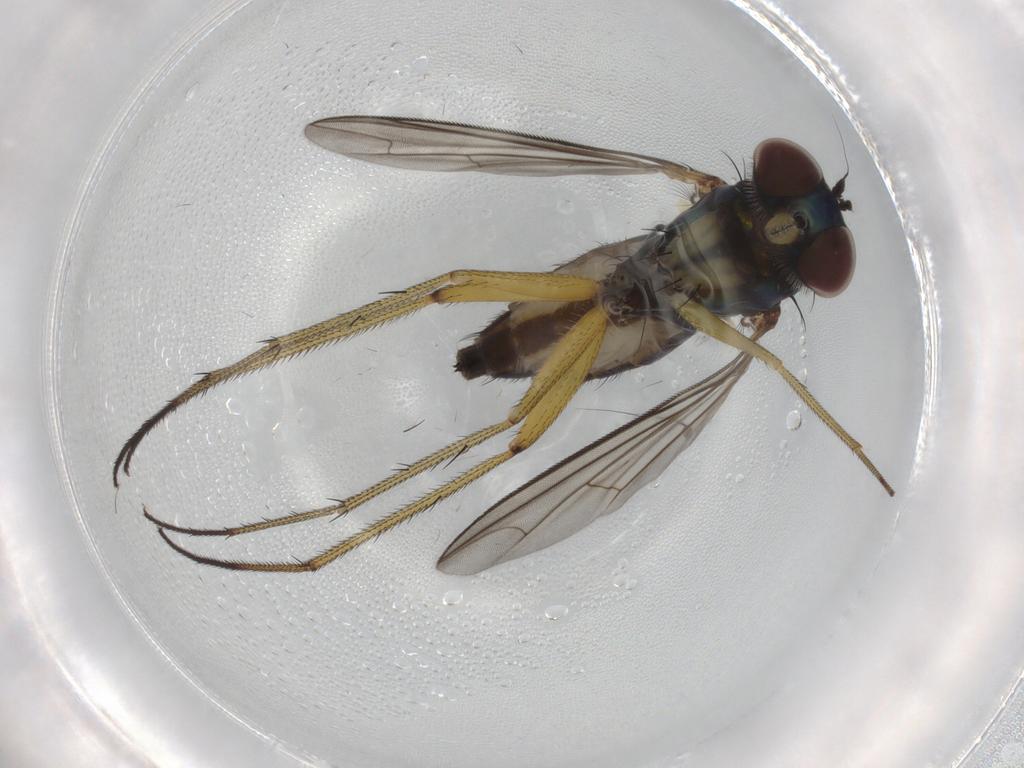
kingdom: Animalia
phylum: Arthropoda
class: Insecta
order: Diptera
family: Dolichopodidae
